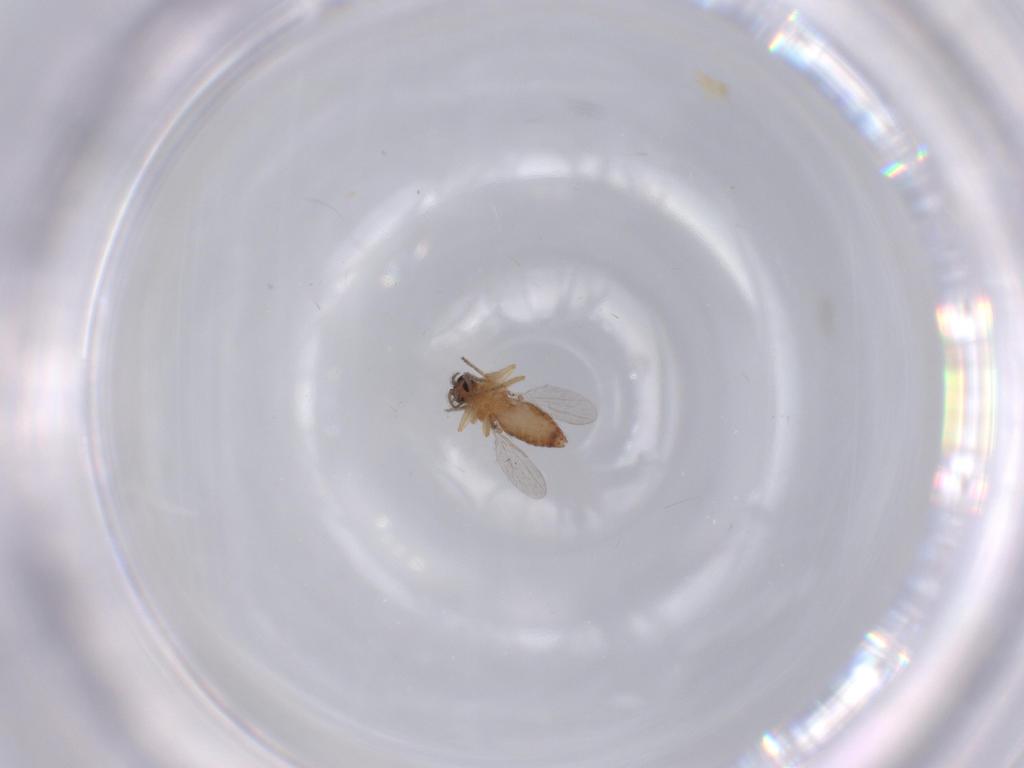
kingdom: Animalia
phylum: Arthropoda
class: Insecta
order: Diptera
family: Ceratopogonidae
